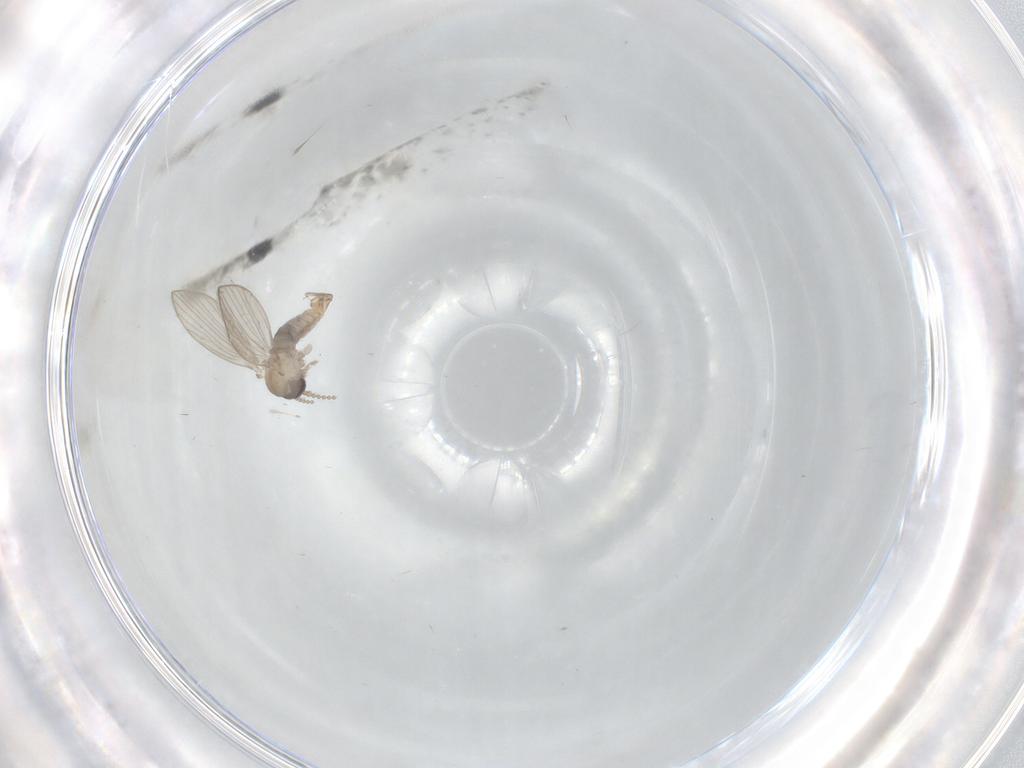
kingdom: Animalia
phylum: Arthropoda
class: Insecta
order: Diptera
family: Sciaridae
